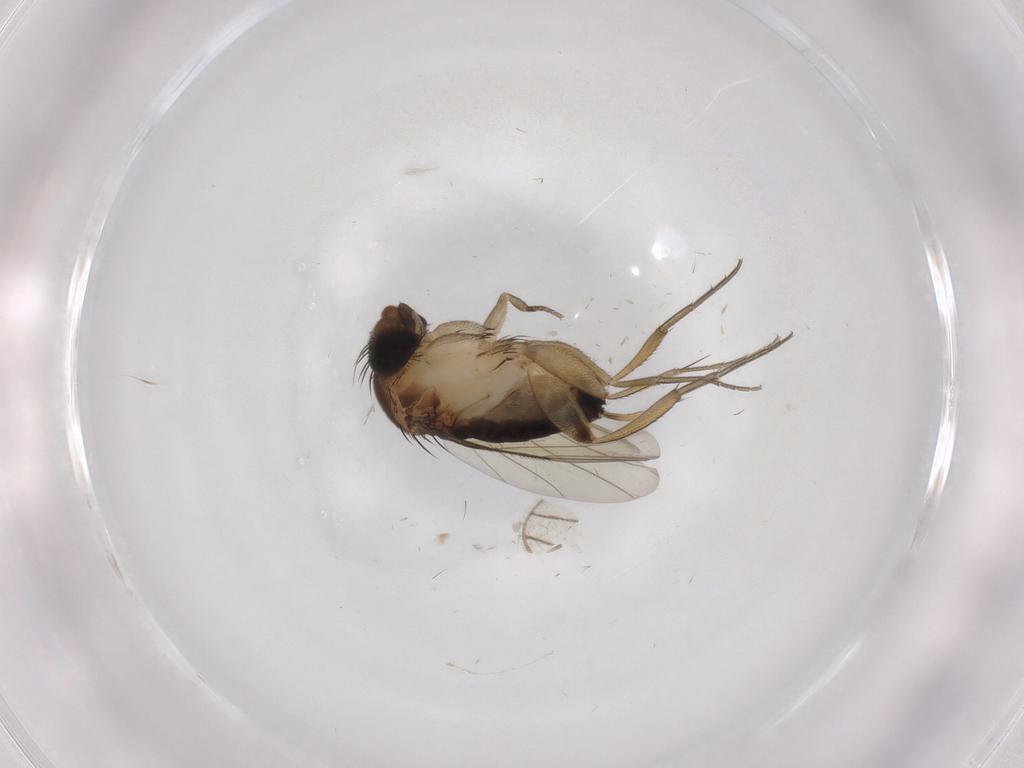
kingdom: Animalia
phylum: Arthropoda
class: Insecta
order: Diptera
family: Phoridae
